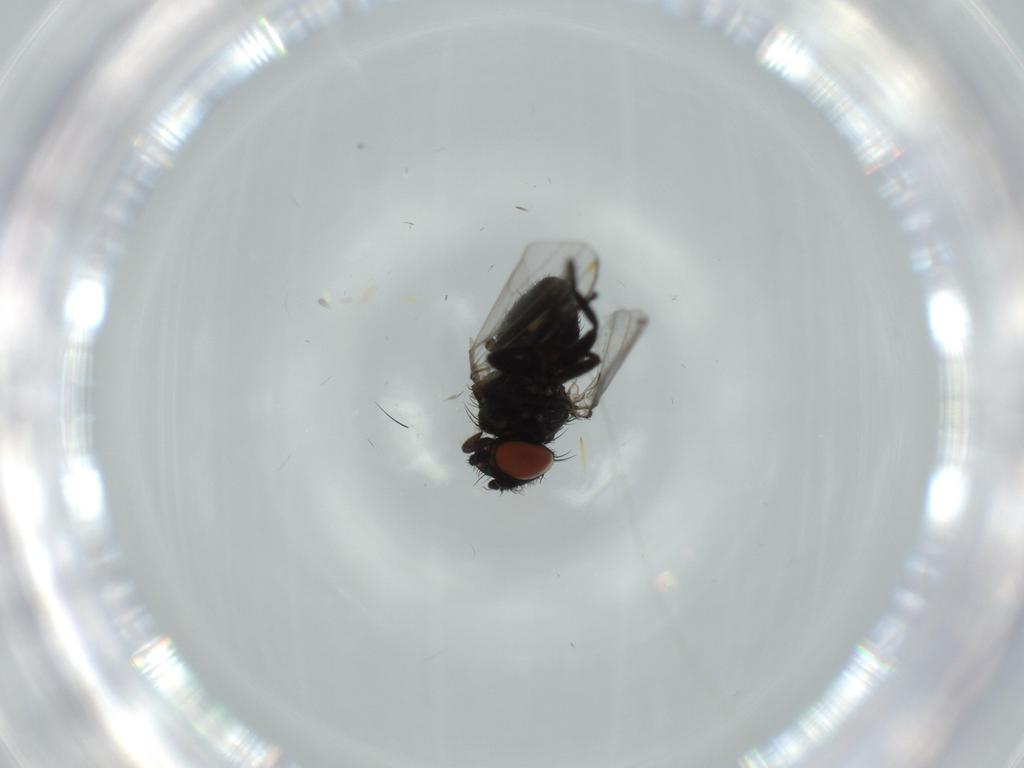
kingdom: Animalia
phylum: Arthropoda
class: Insecta
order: Diptera
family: Milichiidae
